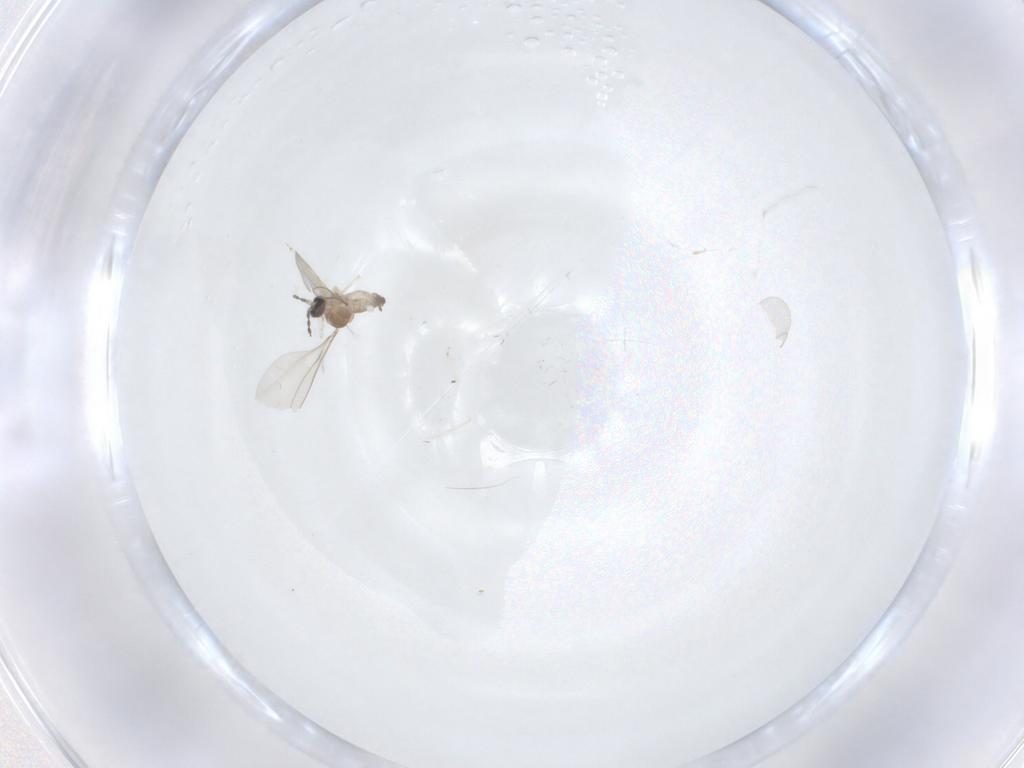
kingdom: Animalia
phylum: Arthropoda
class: Insecta
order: Diptera
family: Cecidomyiidae
